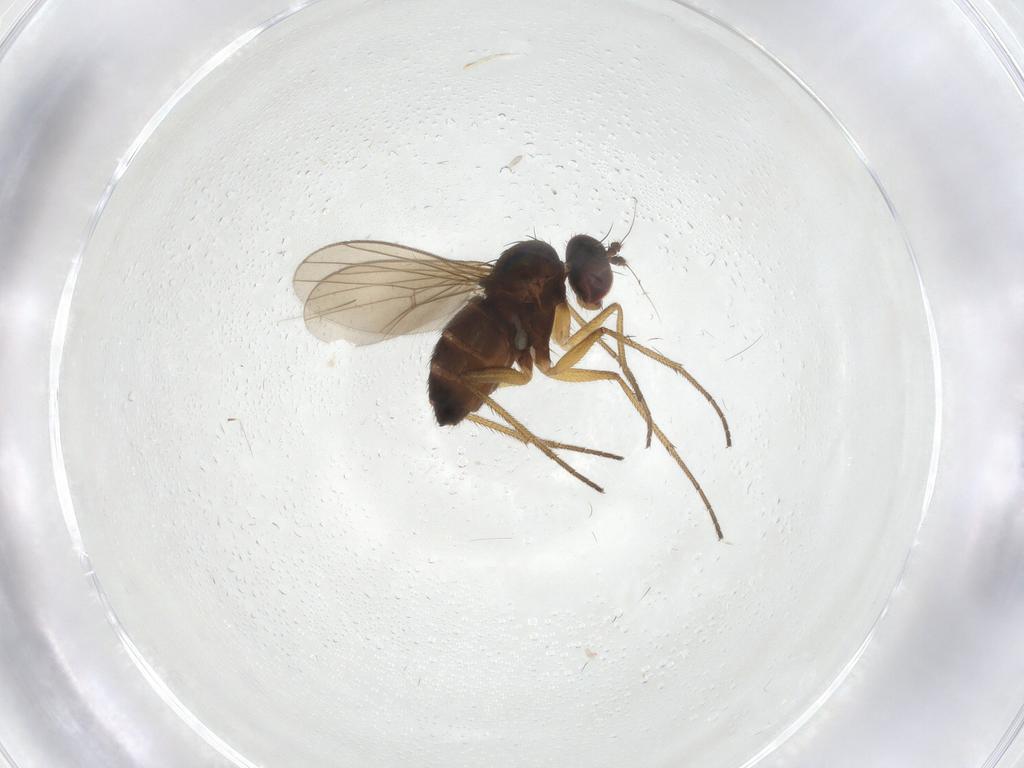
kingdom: Animalia
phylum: Arthropoda
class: Insecta
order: Diptera
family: Dolichopodidae
